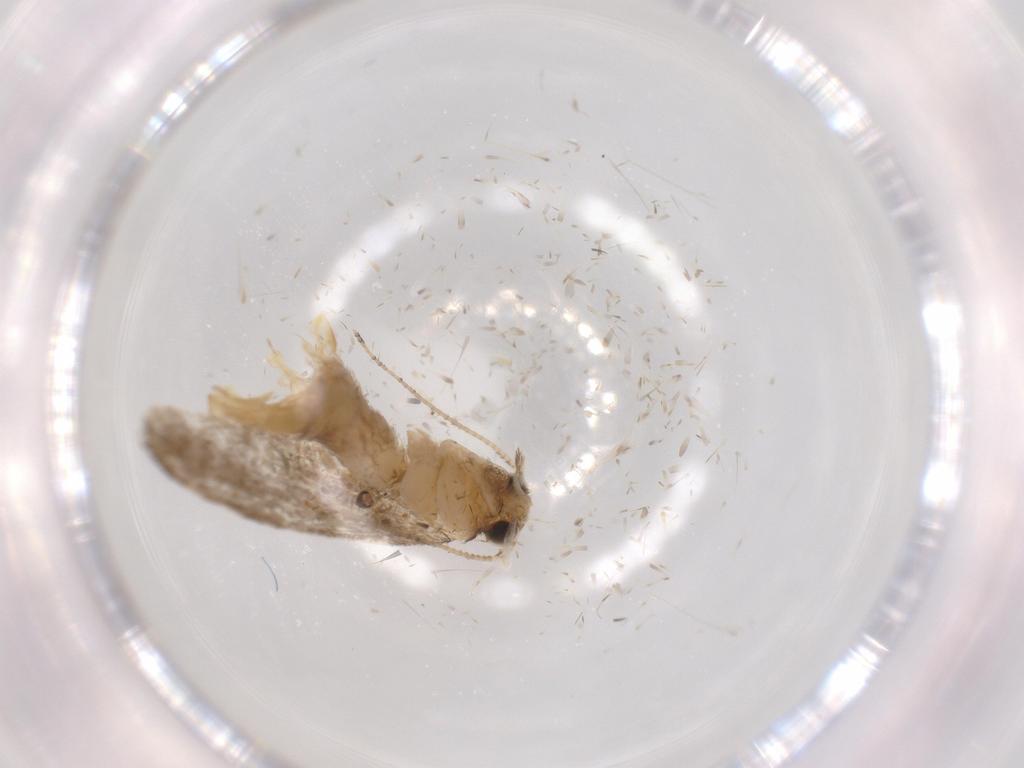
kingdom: Animalia
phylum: Arthropoda
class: Insecta
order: Lepidoptera
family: Tineidae
